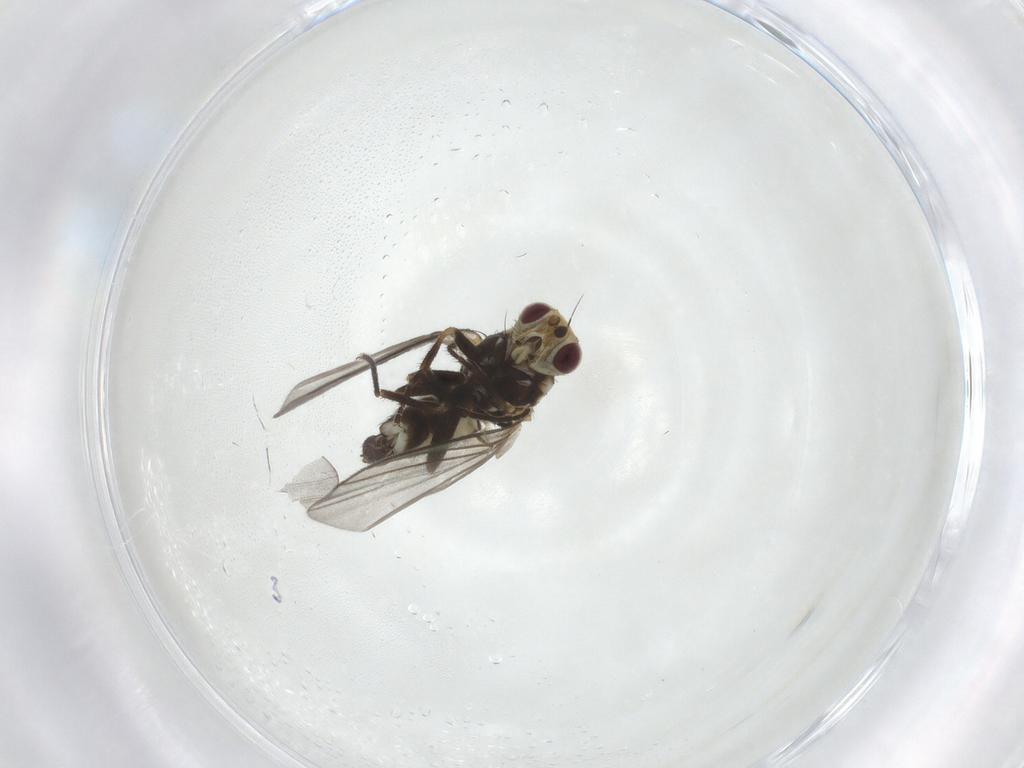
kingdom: Animalia
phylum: Arthropoda
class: Insecta
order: Diptera
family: Agromyzidae
